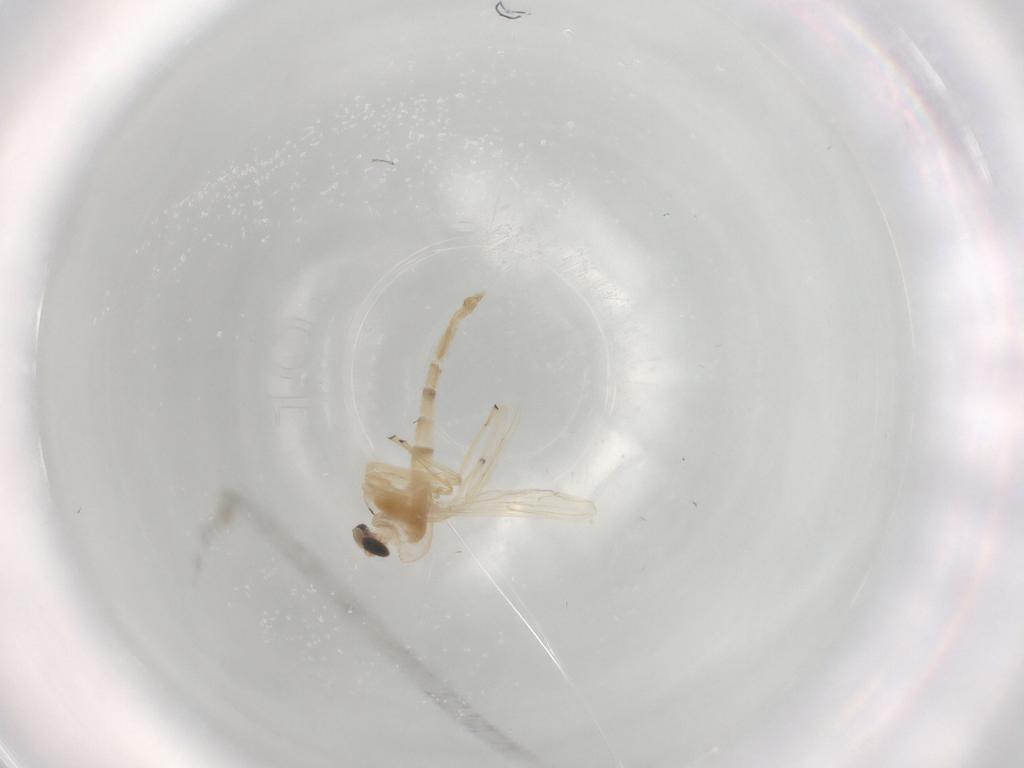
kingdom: Animalia
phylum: Arthropoda
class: Insecta
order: Diptera
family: Chironomidae
